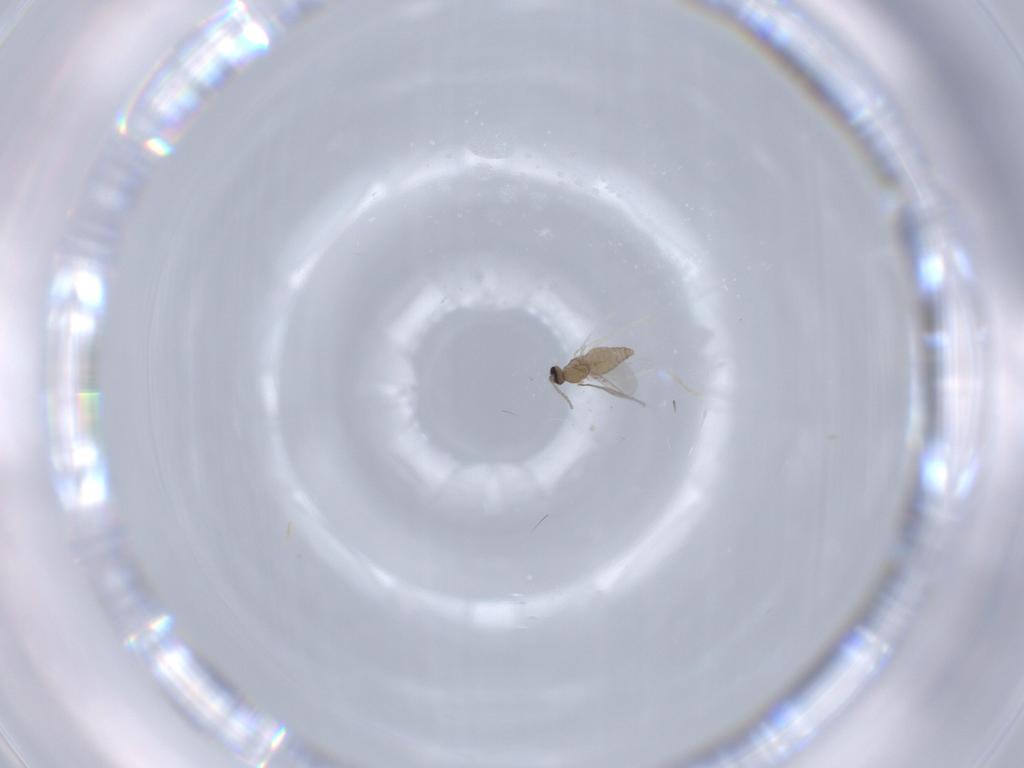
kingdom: Animalia
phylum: Arthropoda
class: Insecta
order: Diptera
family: Cecidomyiidae
